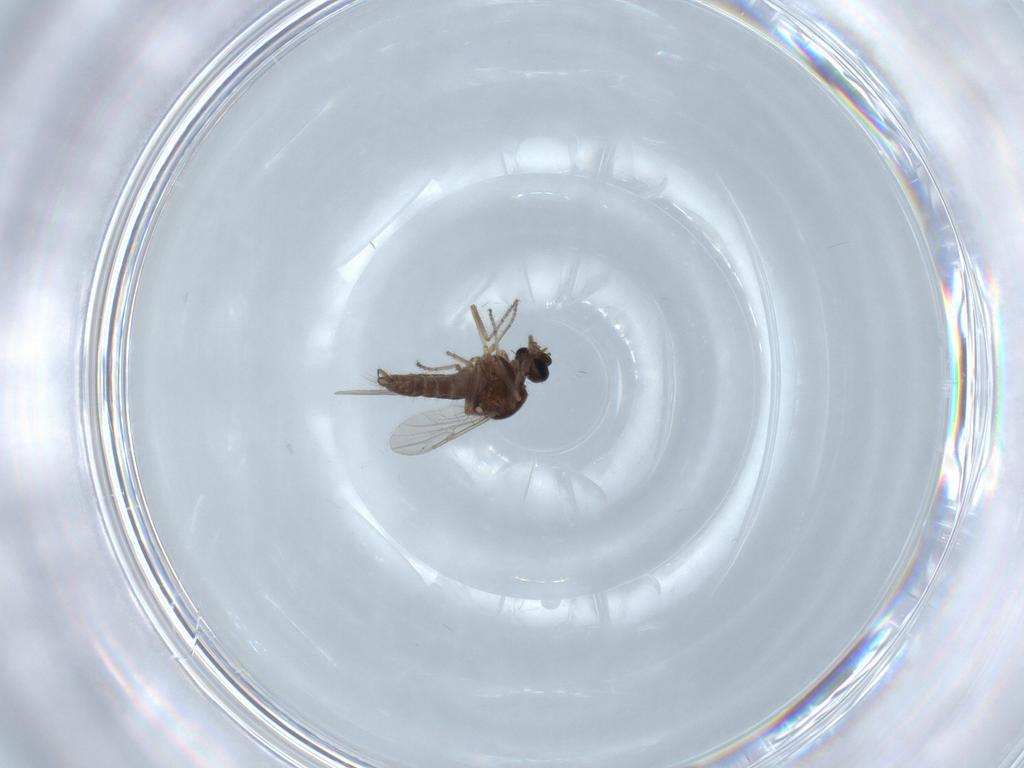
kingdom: Animalia
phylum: Arthropoda
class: Insecta
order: Diptera
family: Ceratopogonidae
